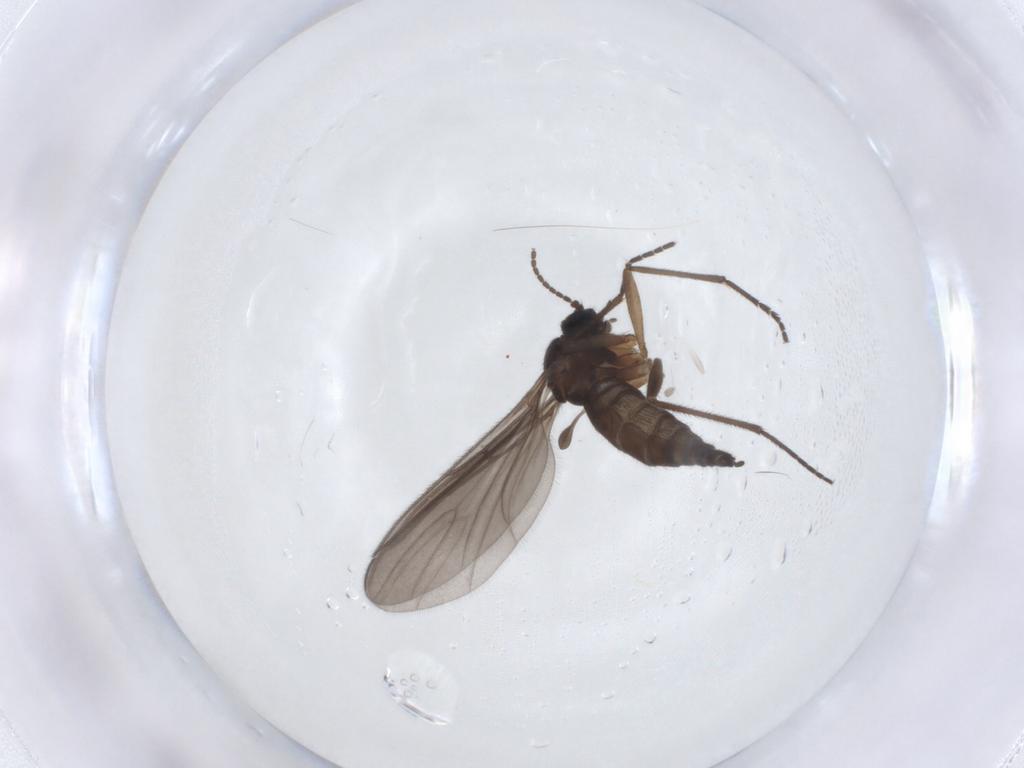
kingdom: Animalia
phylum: Arthropoda
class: Insecta
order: Diptera
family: Sciaridae
